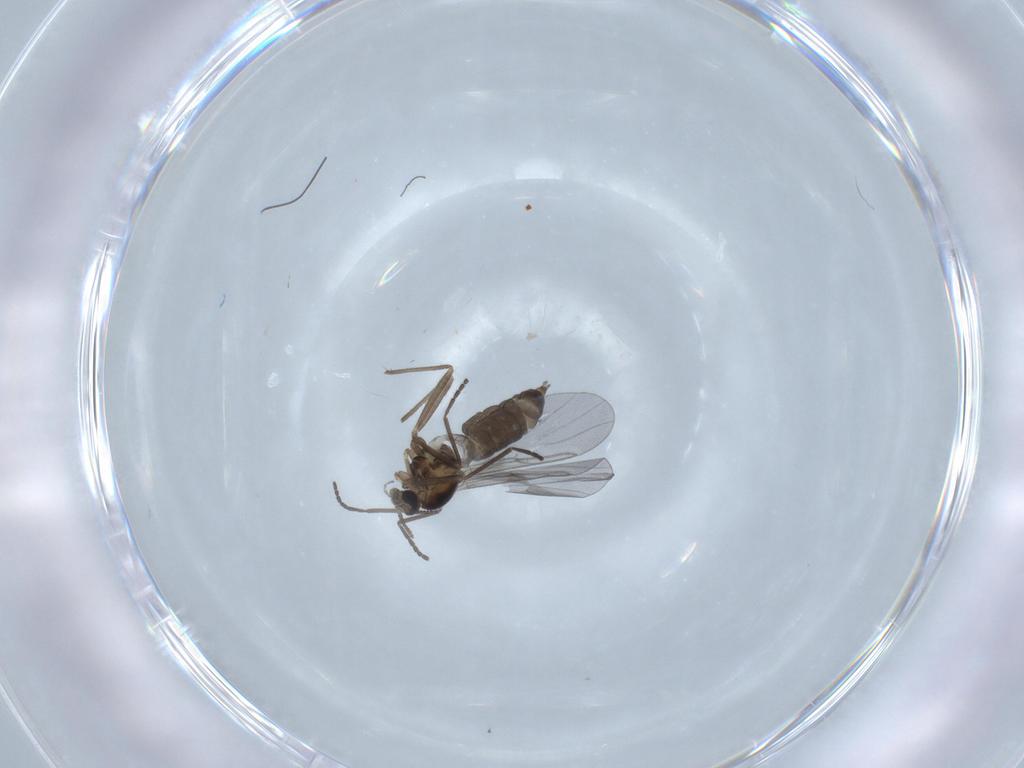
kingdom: Animalia
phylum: Arthropoda
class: Insecta
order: Diptera
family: Cecidomyiidae
